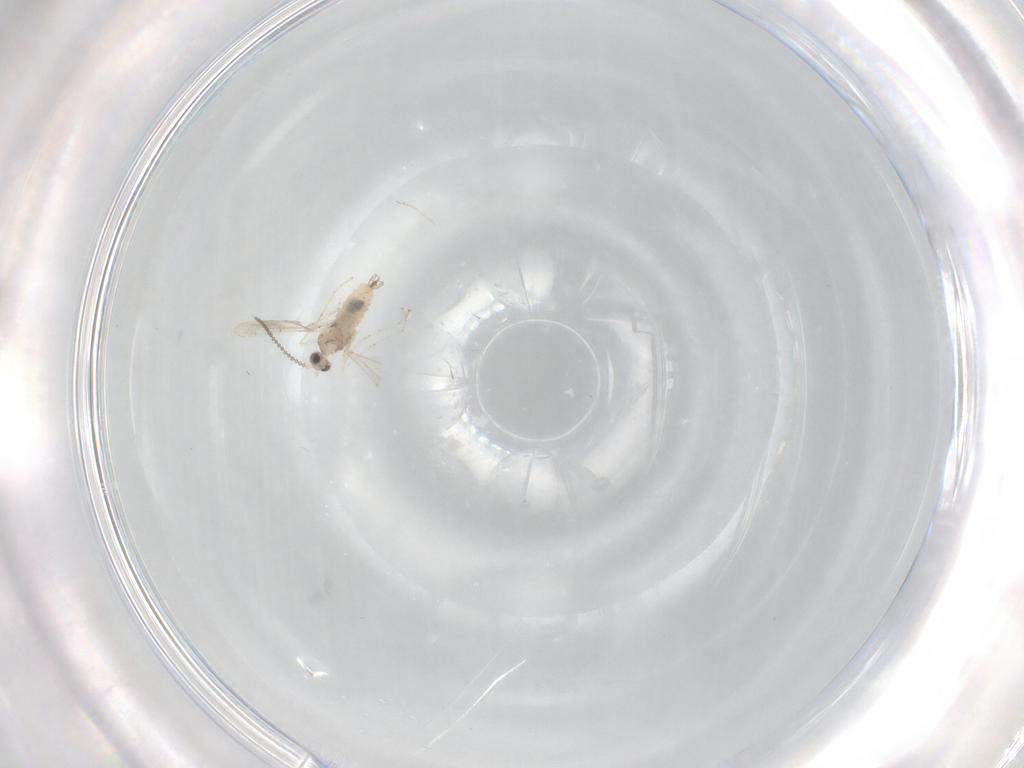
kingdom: Animalia
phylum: Arthropoda
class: Insecta
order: Diptera
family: Cecidomyiidae
